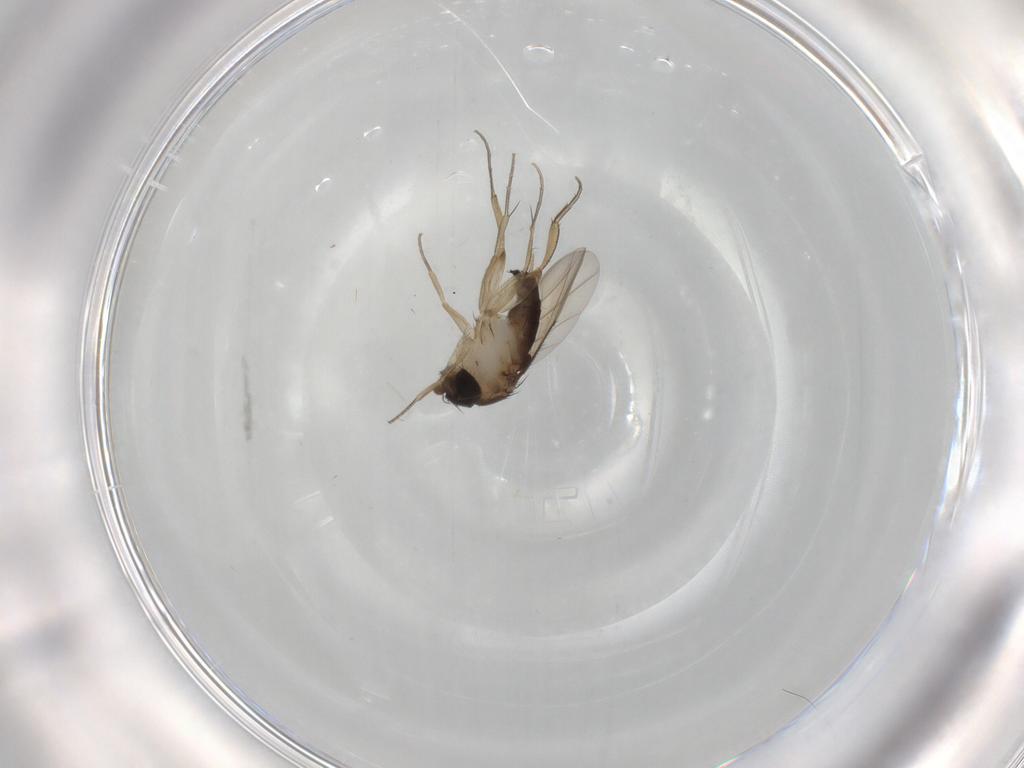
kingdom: Animalia
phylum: Arthropoda
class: Insecta
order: Diptera
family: Phoridae
